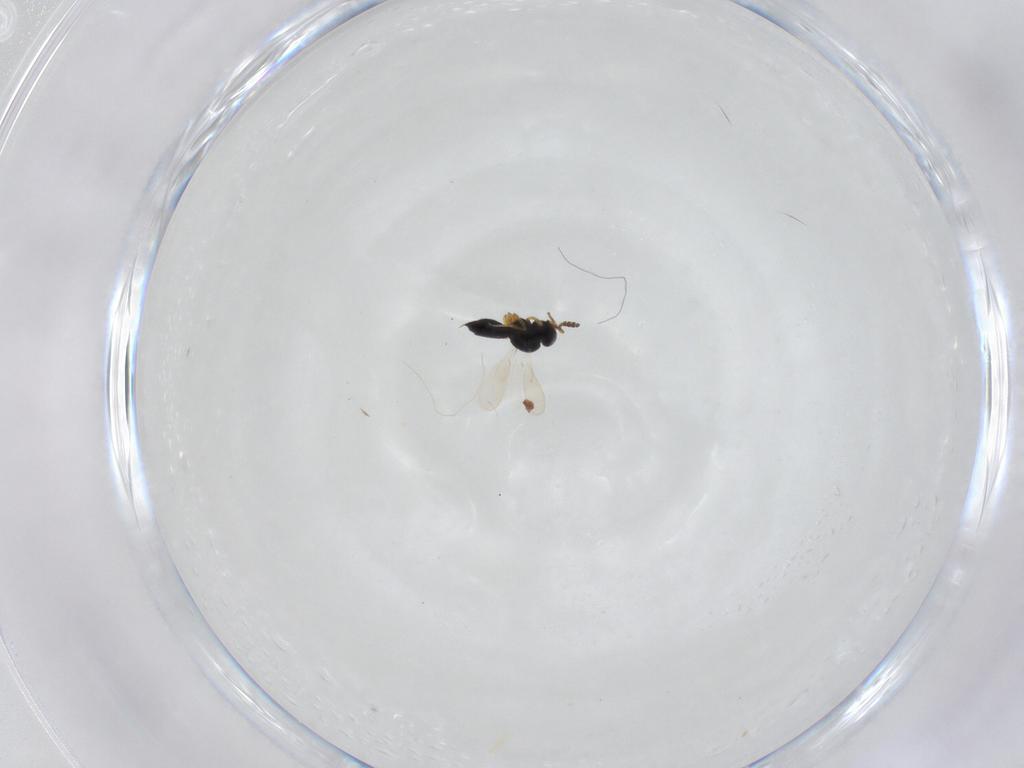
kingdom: Animalia
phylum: Arthropoda
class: Insecta
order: Hymenoptera
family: Scelionidae
